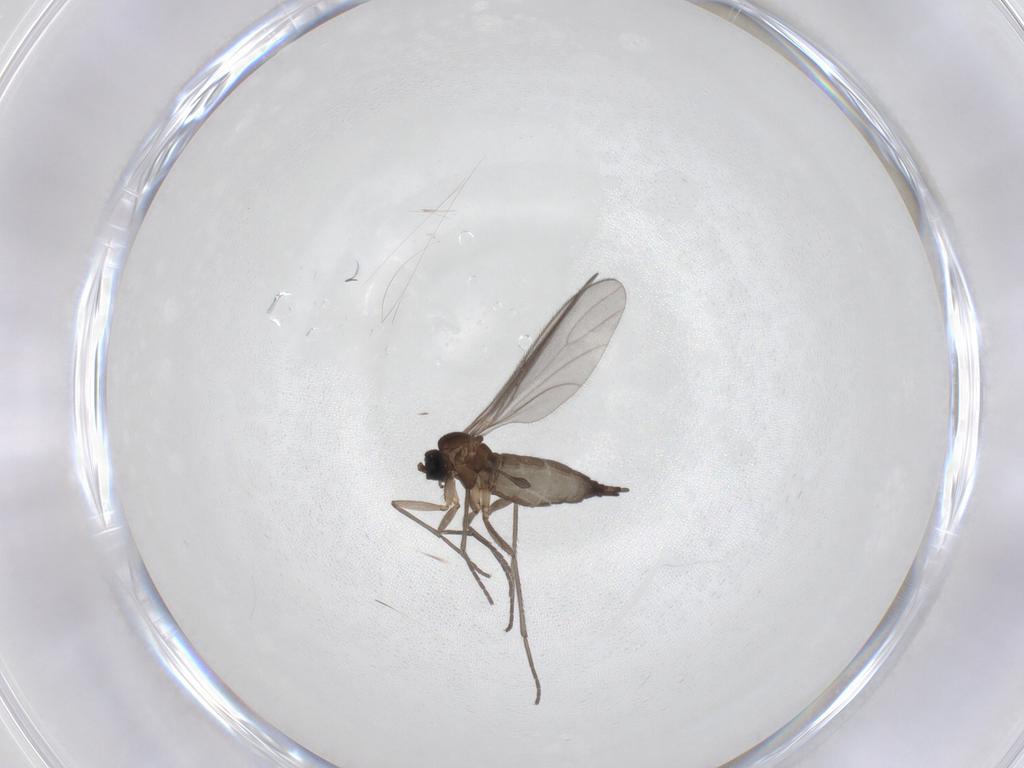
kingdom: Animalia
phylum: Arthropoda
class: Insecta
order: Diptera
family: Sciaridae
